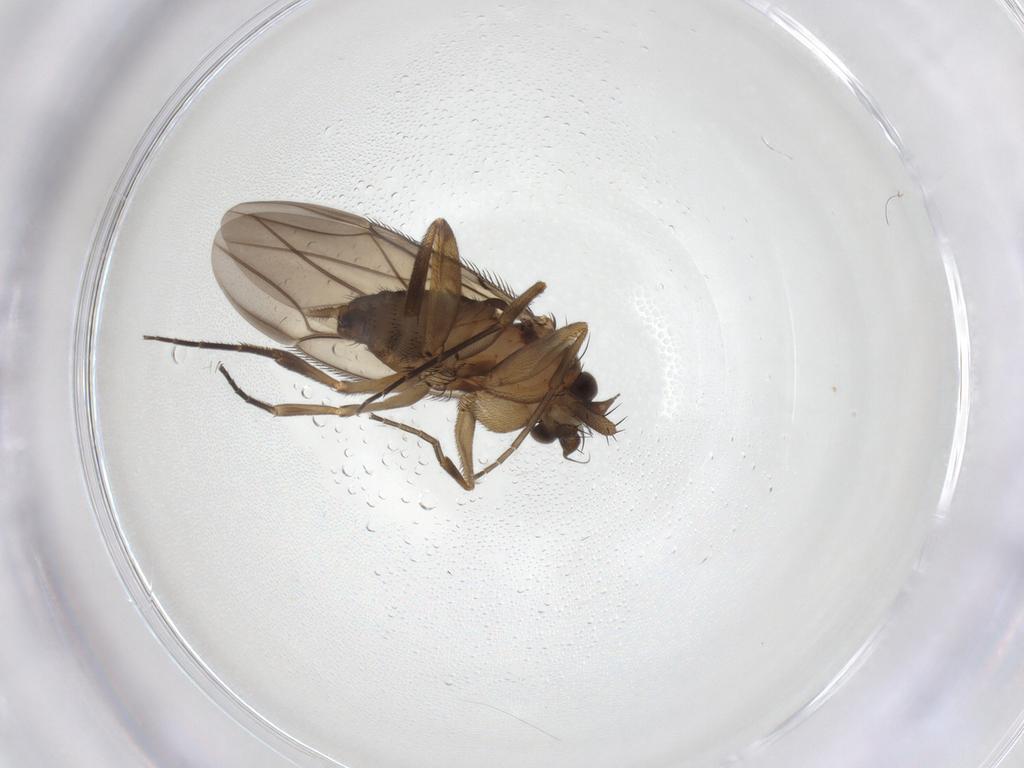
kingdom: Animalia
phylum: Arthropoda
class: Insecta
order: Diptera
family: Phoridae
